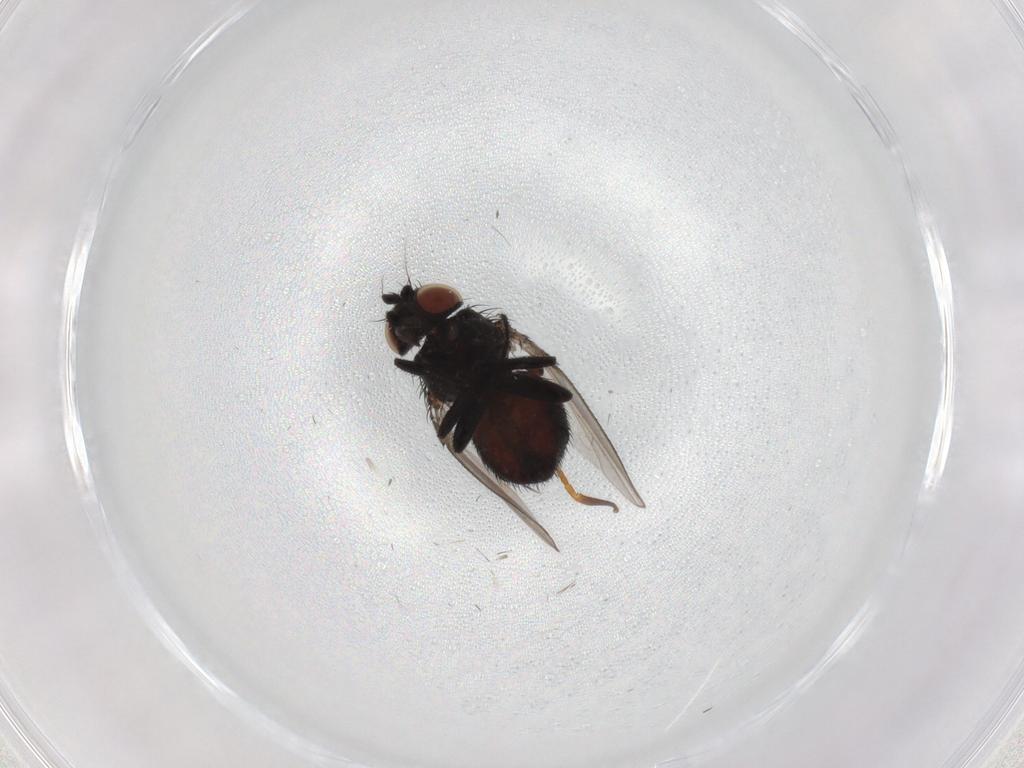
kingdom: Animalia
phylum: Arthropoda
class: Insecta
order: Diptera
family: Milichiidae
